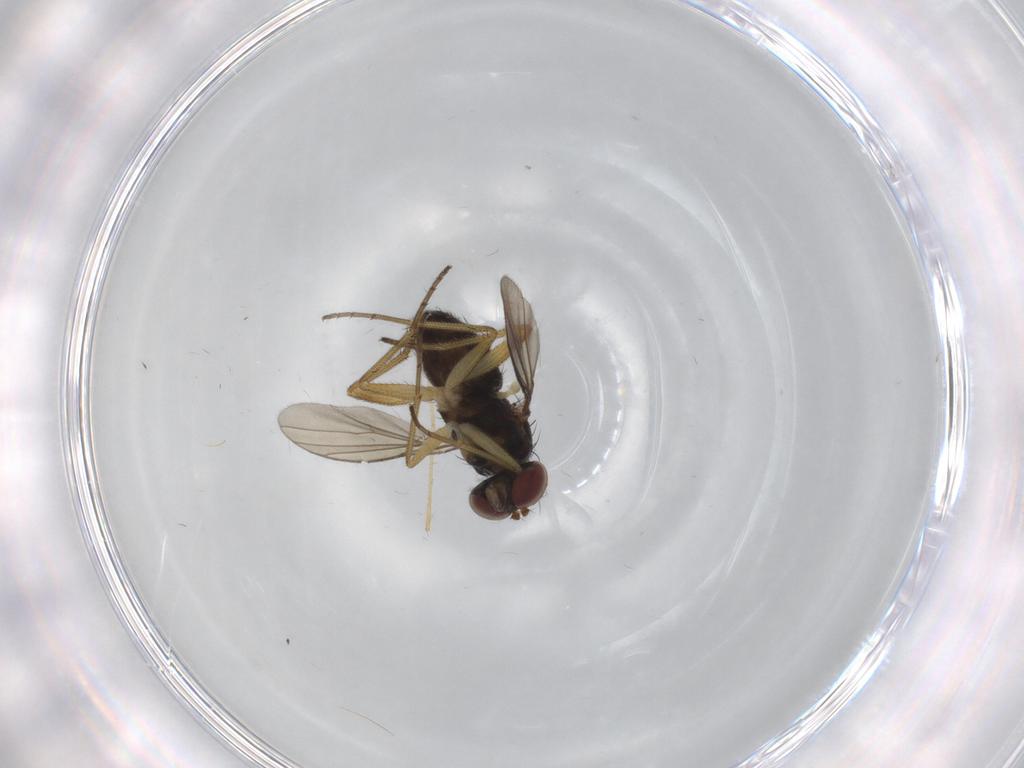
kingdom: Animalia
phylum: Arthropoda
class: Insecta
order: Diptera
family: Dolichopodidae
